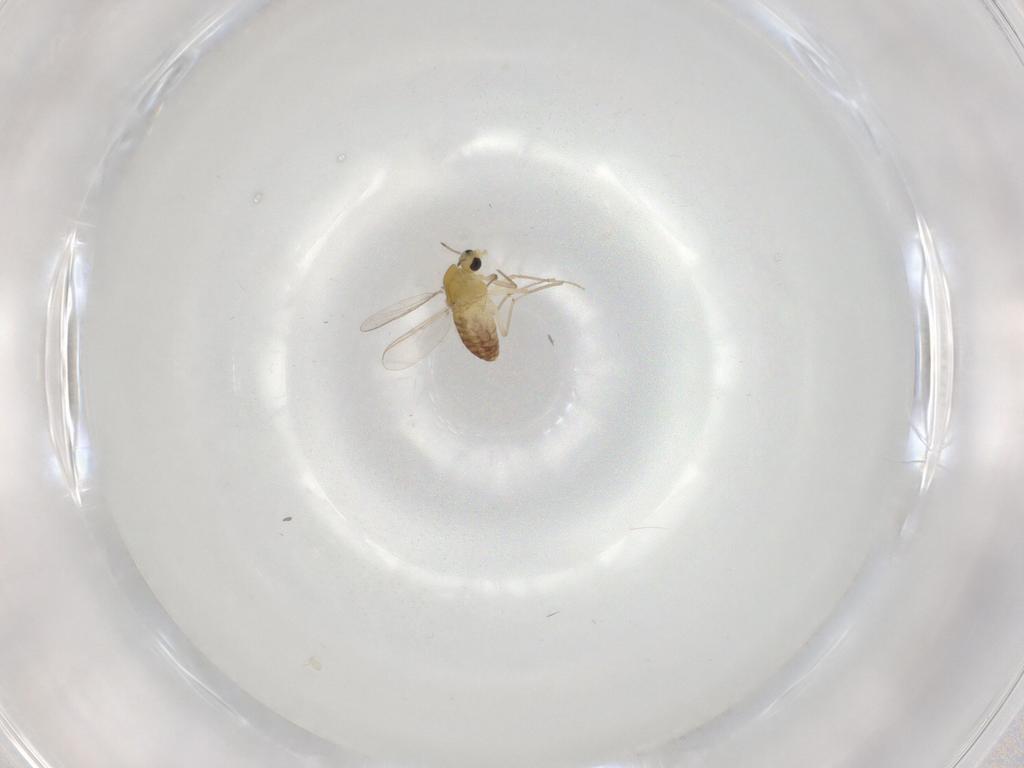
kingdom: Animalia
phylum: Arthropoda
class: Insecta
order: Diptera
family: Chironomidae
